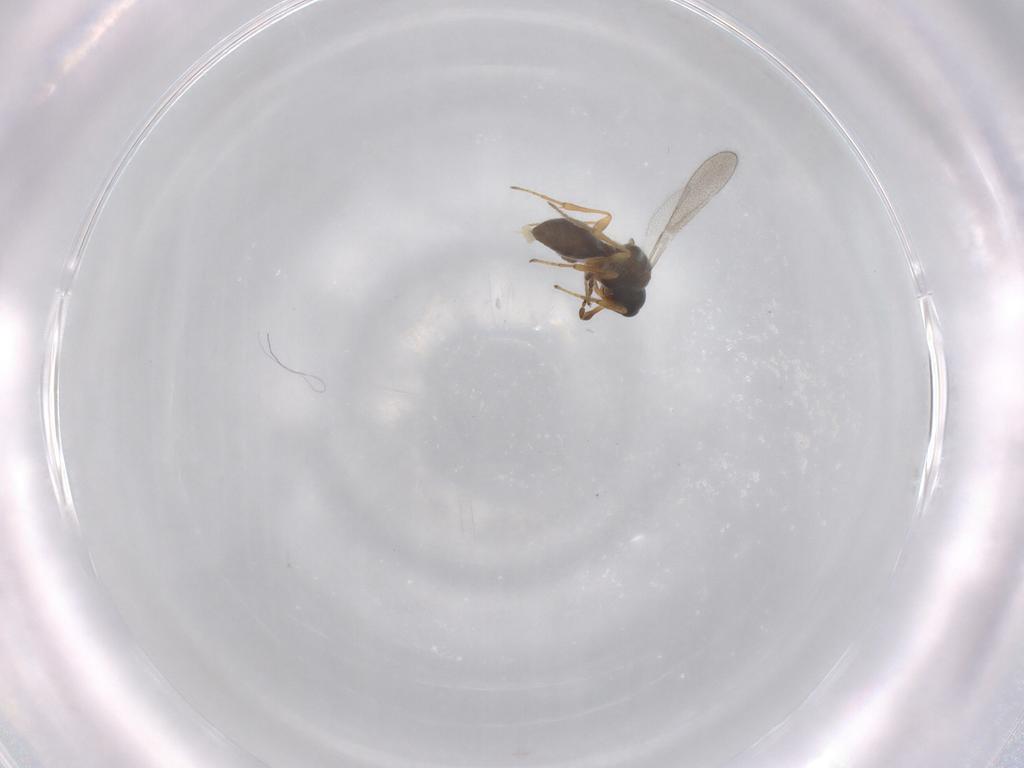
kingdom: Animalia
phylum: Arthropoda
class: Insecta
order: Diptera
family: Mythicomyiidae
